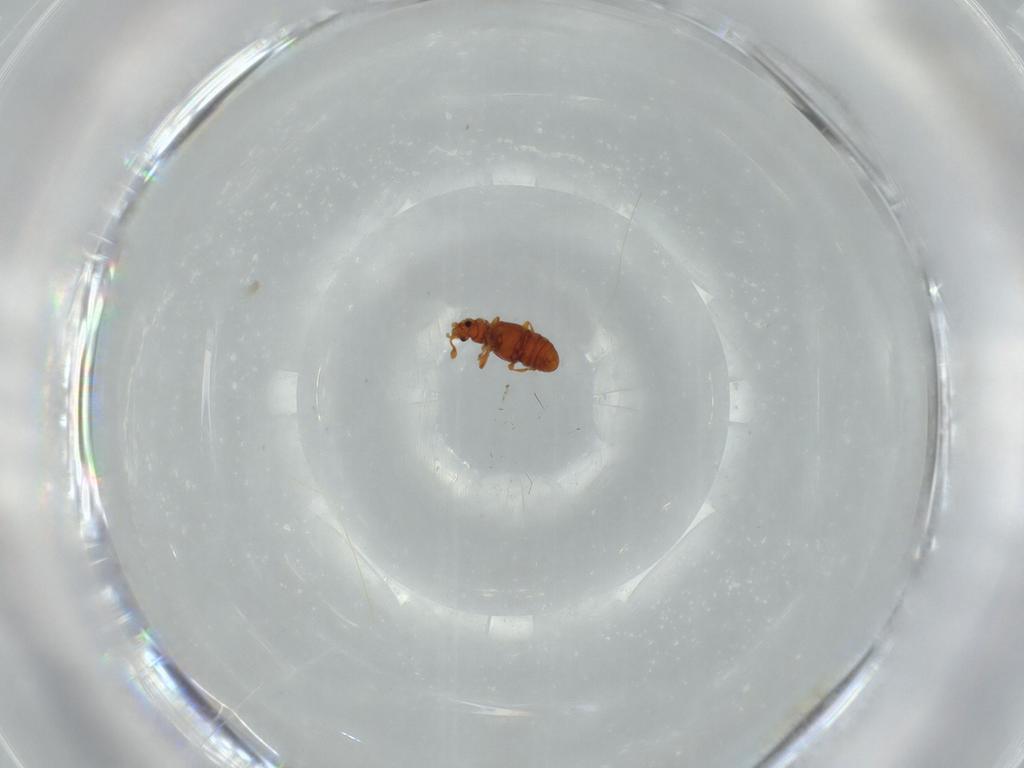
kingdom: Animalia
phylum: Arthropoda
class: Insecta
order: Coleoptera
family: Staphylinidae
